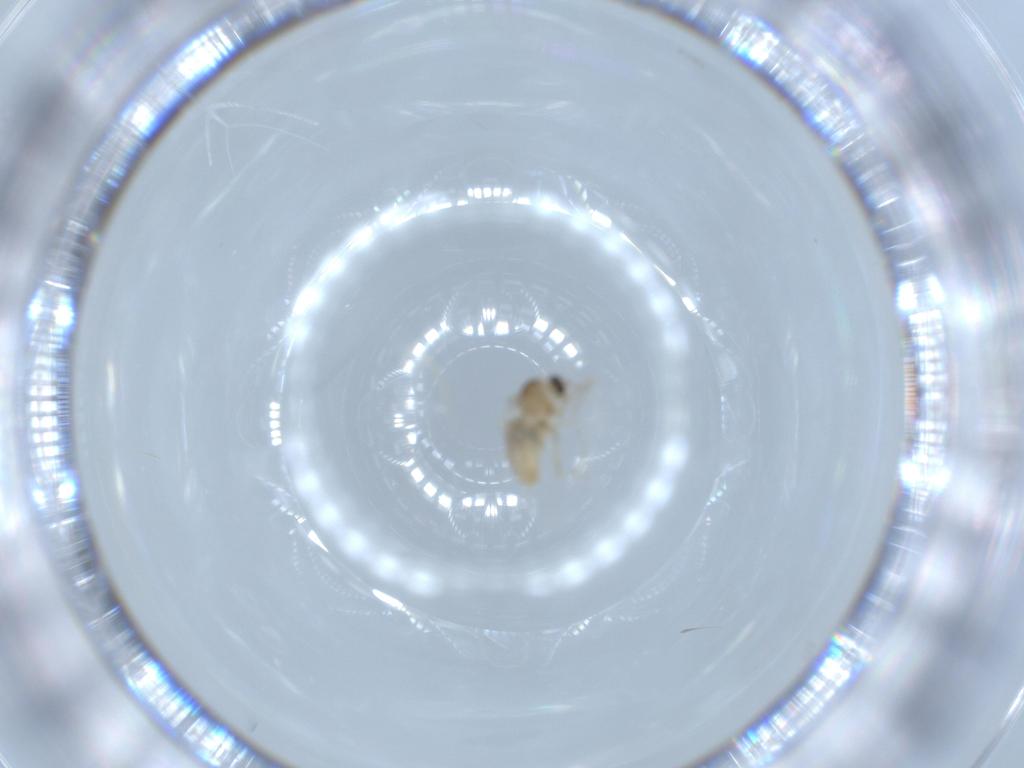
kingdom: Animalia
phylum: Arthropoda
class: Insecta
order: Diptera
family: Cecidomyiidae
